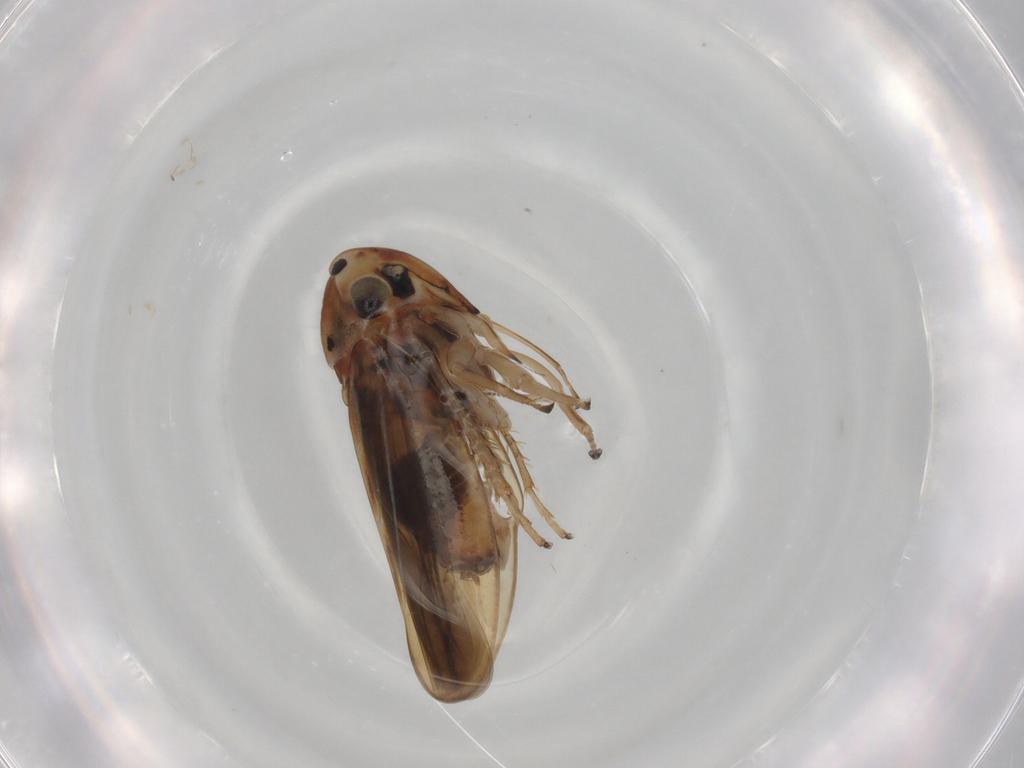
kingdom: Animalia
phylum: Arthropoda
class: Insecta
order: Hemiptera
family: Cicadellidae
